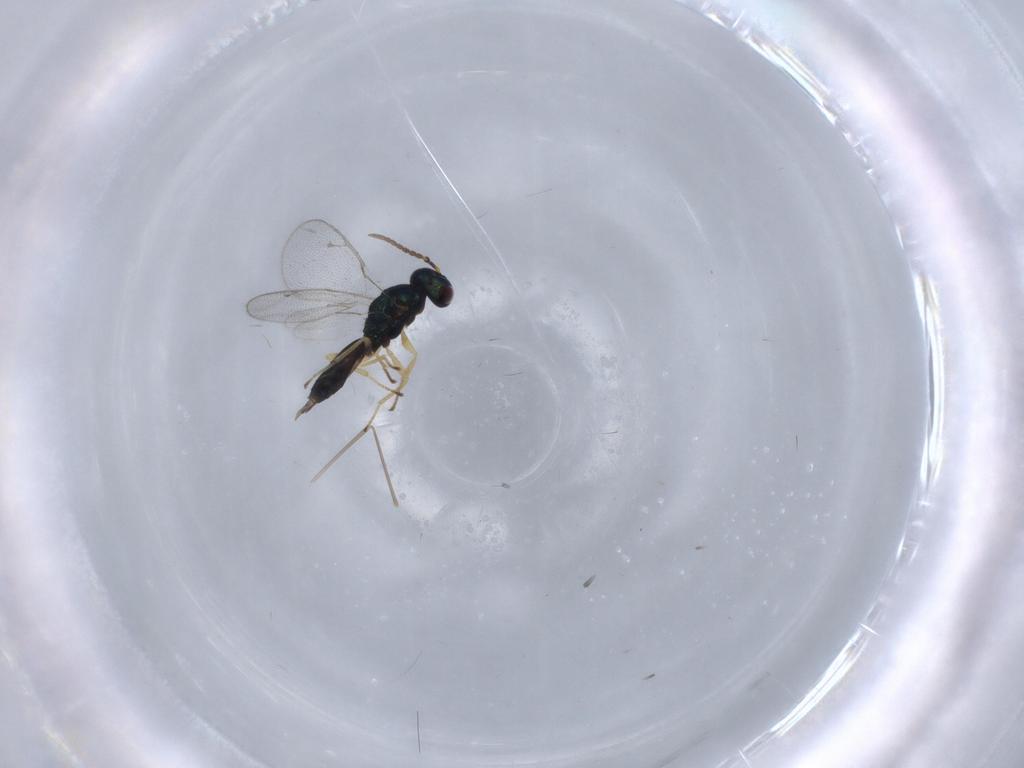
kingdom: Animalia
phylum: Arthropoda
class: Insecta
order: Hymenoptera
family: Pteromalidae
